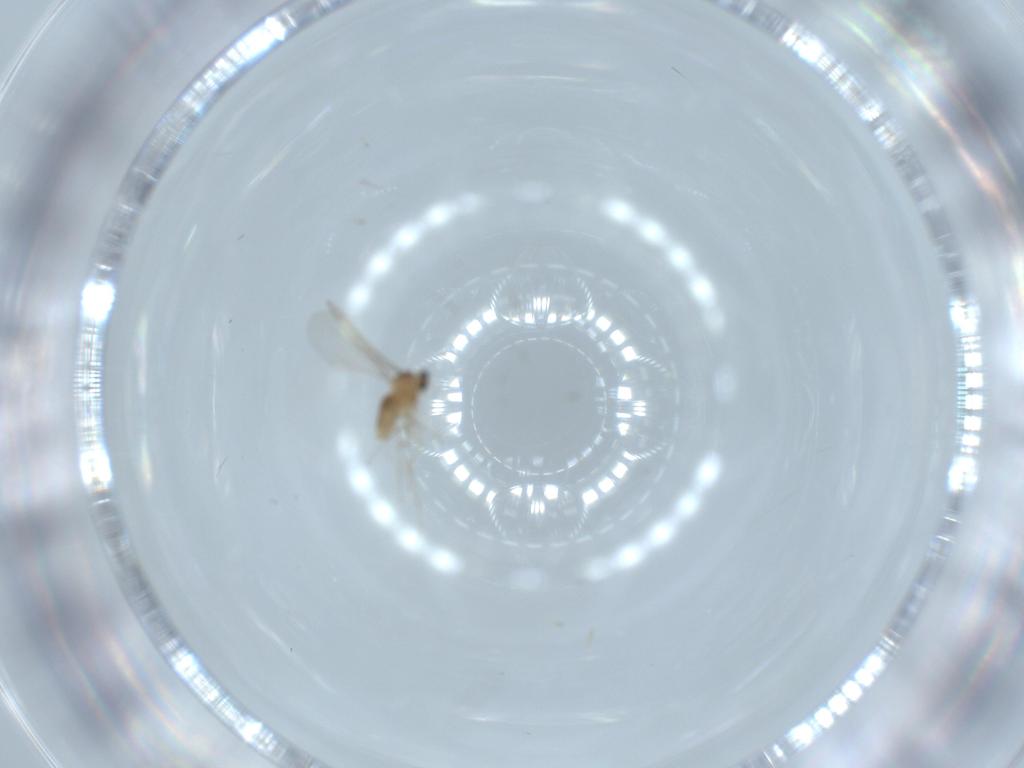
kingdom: Animalia
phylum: Arthropoda
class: Insecta
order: Diptera
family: Cecidomyiidae
